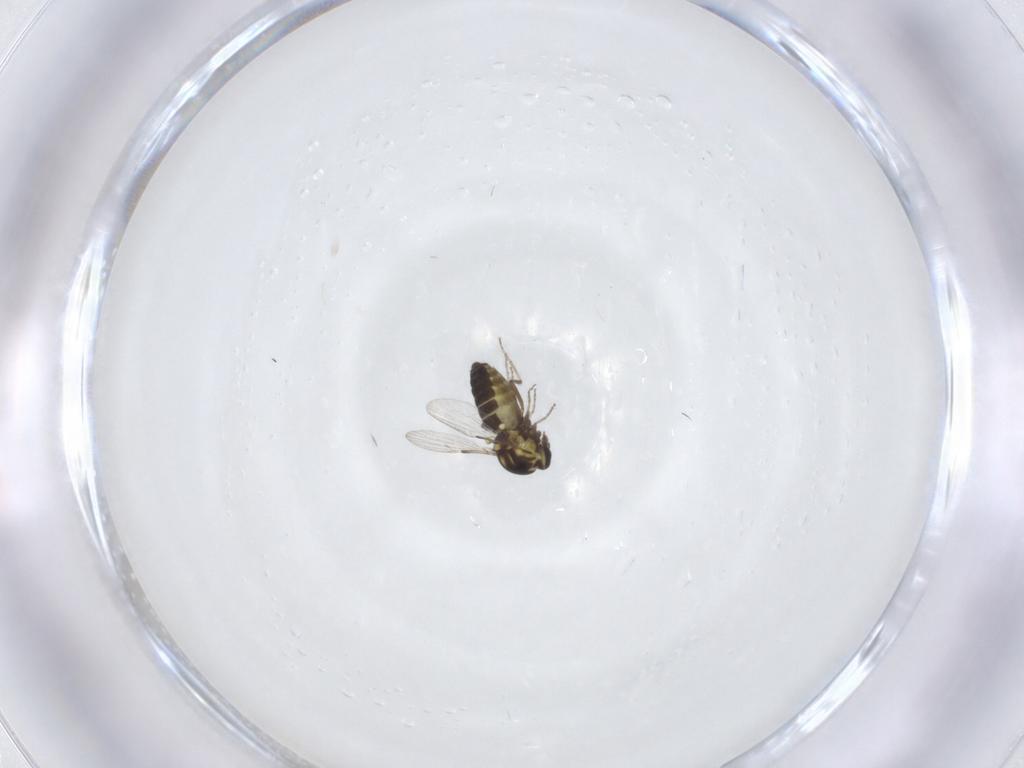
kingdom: Animalia
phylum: Arthropoda
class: Insecta
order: Diptera
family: Ceratopogonidae
